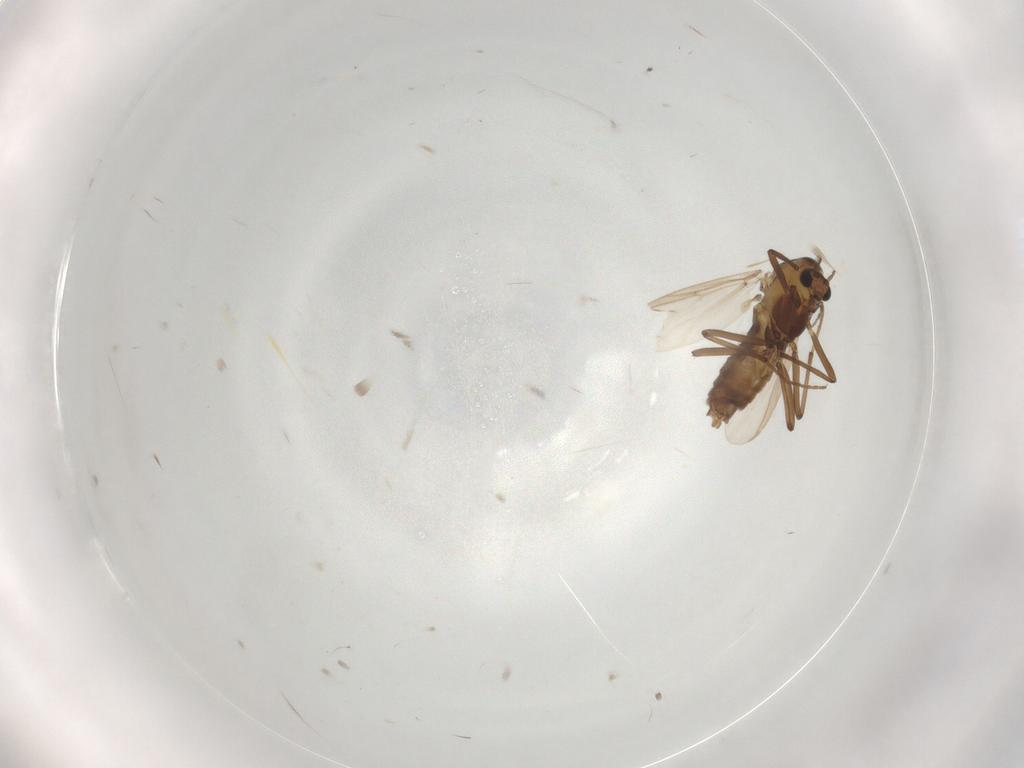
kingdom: Animalia
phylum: Arthropoda
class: Insecta
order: Diptera
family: Chironomidae
